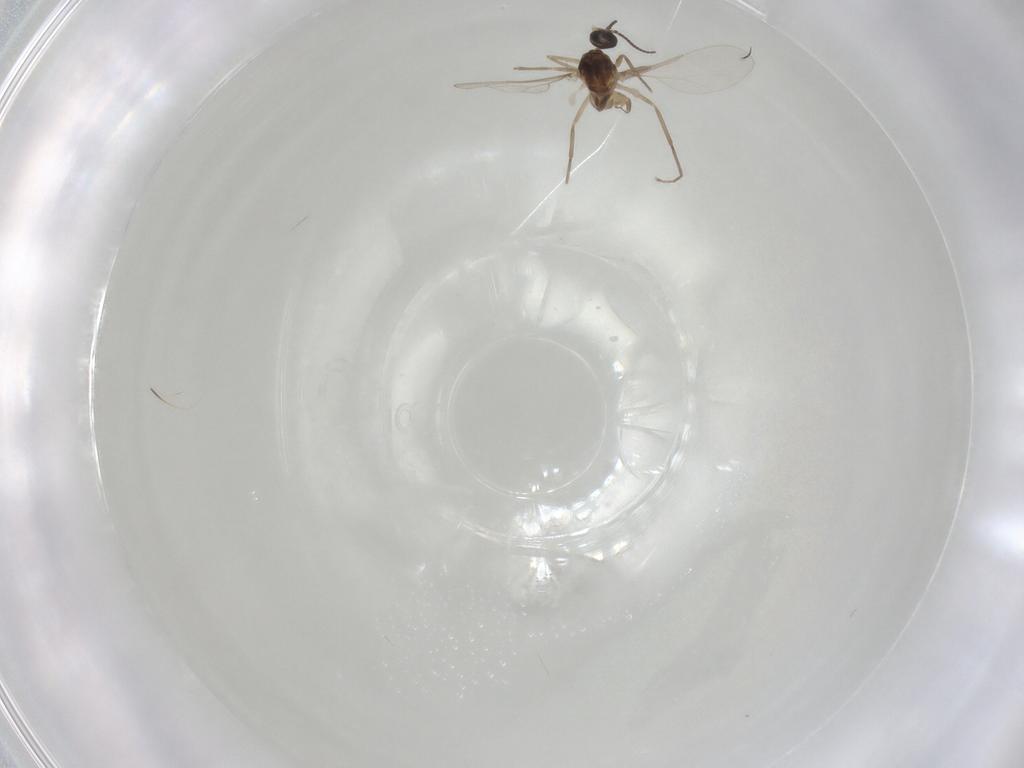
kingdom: Animalia
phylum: Arthropoda
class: Insecta
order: Diptera
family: Cecidomyiidae
